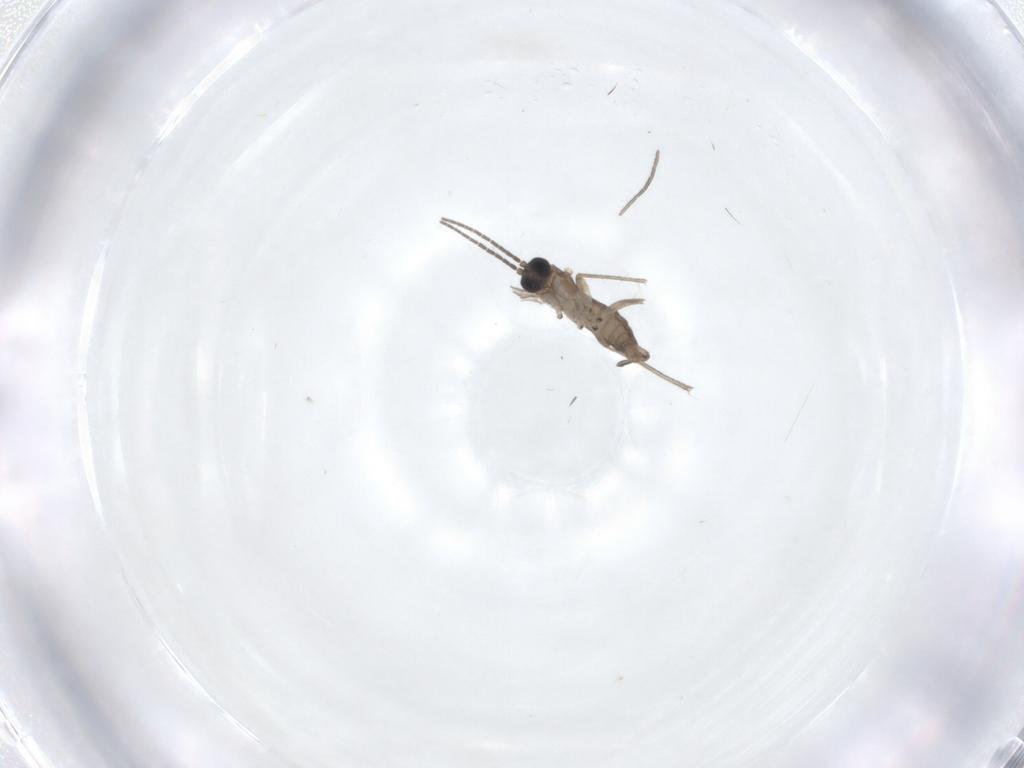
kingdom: Animalia
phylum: Arthropoda
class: Insecta
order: Diptera
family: Sciaridae
